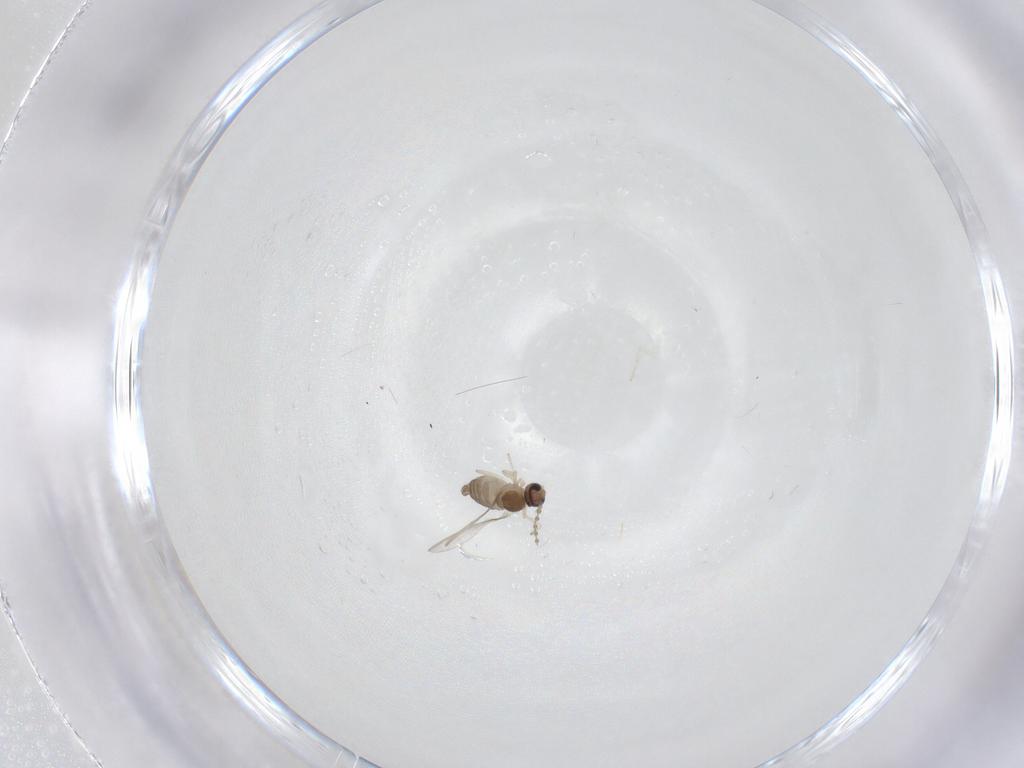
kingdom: Animalia
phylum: Arthropoda
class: Insecta
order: Diptera
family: Cecidomyiidae
